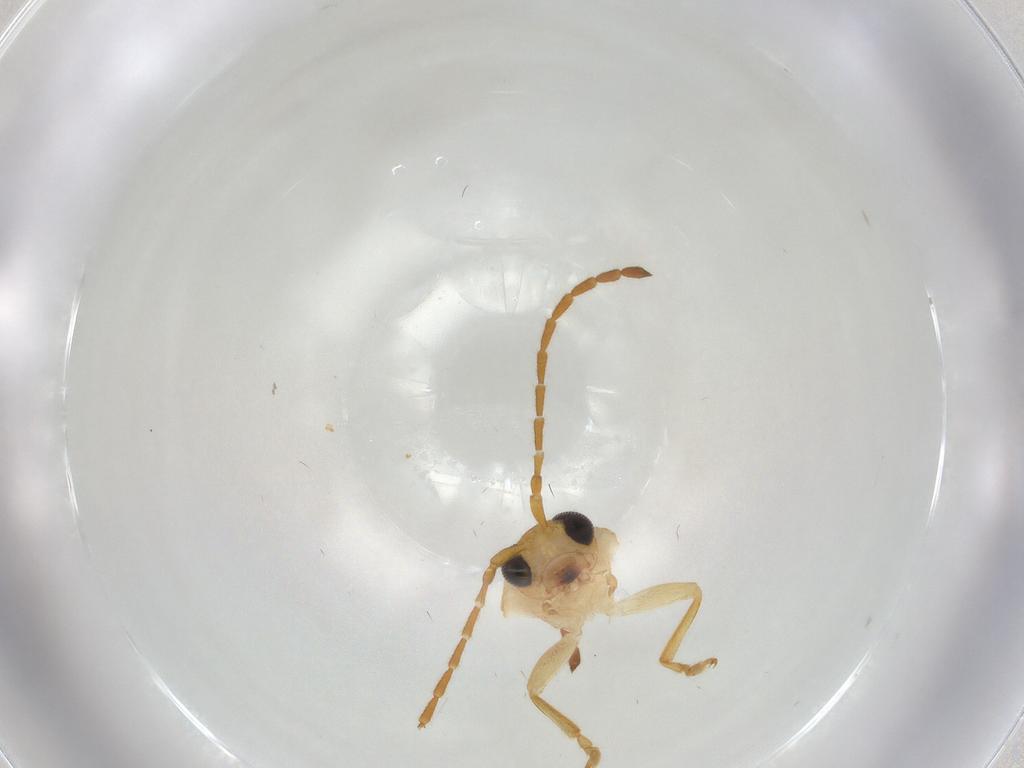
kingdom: Animalia
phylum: Arthropoda
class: Insecta
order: Coleoptera
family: Chrysomelidae
